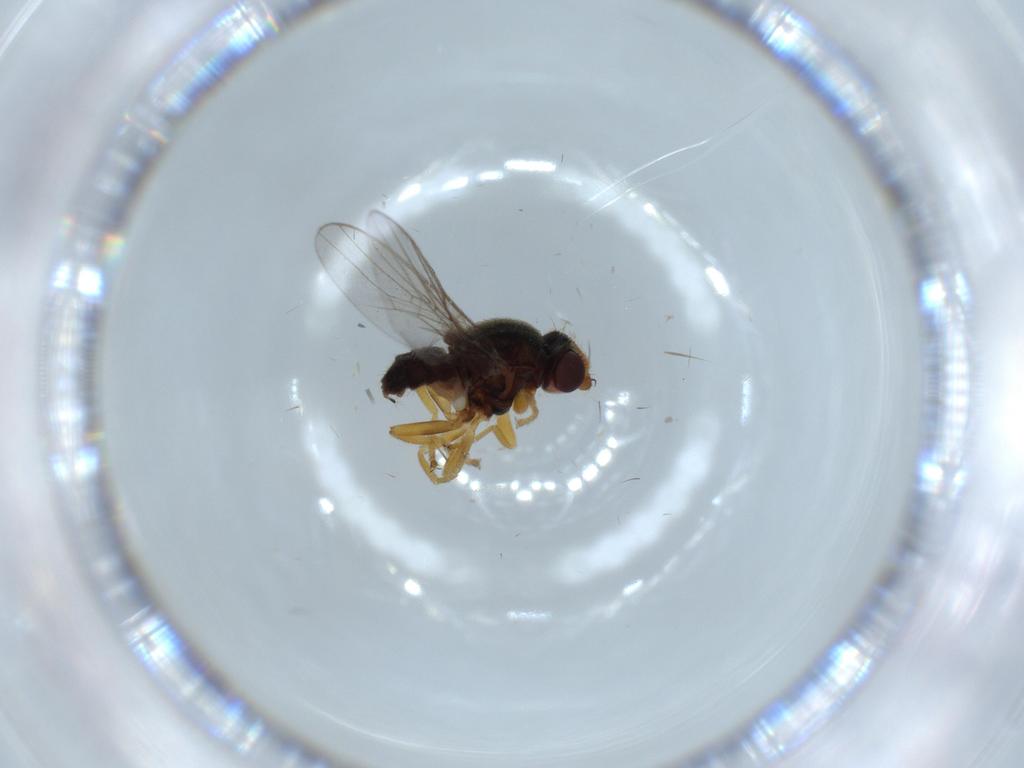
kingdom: Animalia
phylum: Arthropoda
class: Insecta
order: Diptera
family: Chloropidae
